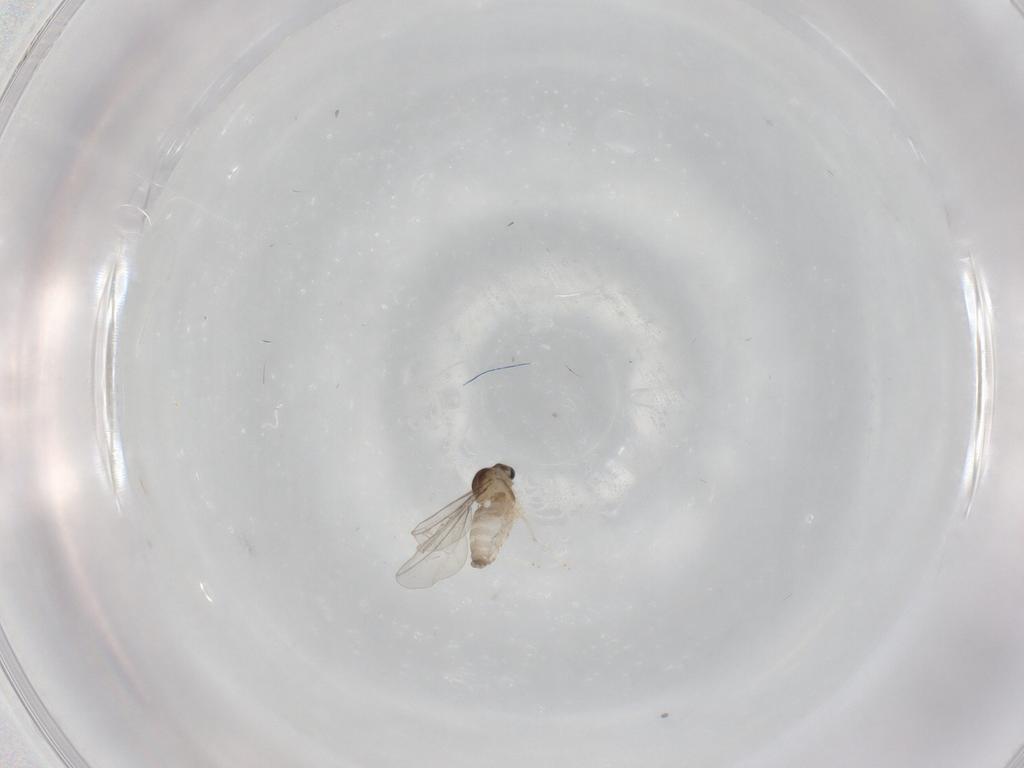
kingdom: Animalia
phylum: Arthropoda
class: Insecta
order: Diptera
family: Cecidomyiidae
